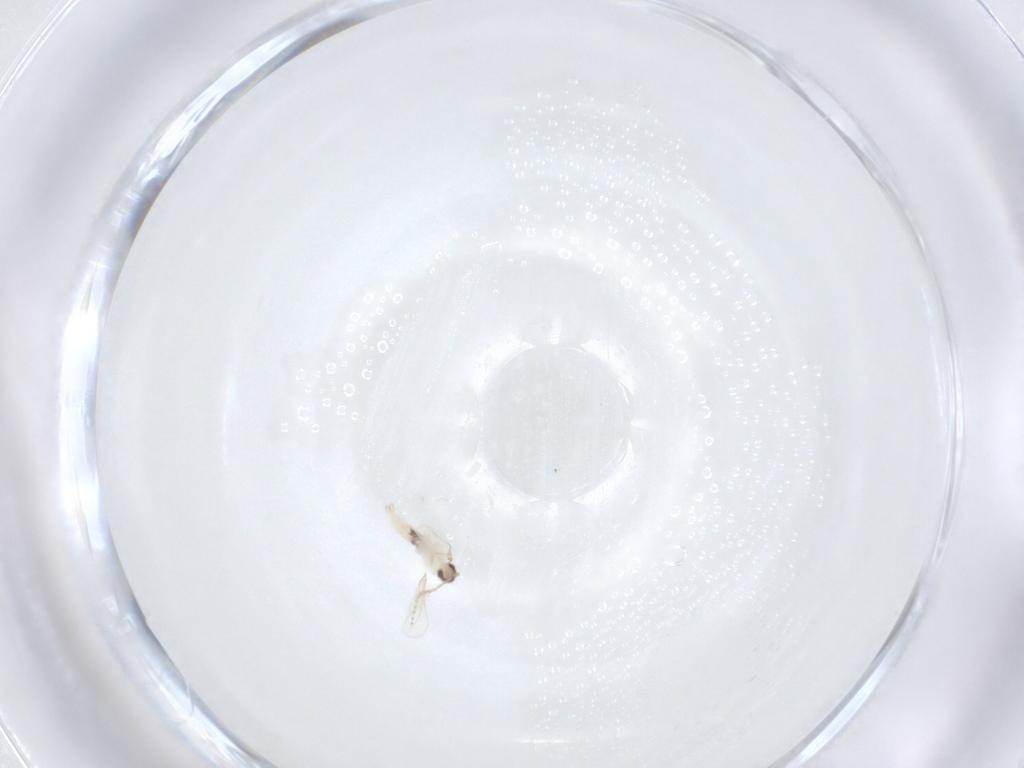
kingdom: Animalia
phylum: Arthropoda
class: Insecta
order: Diptera
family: Cecidomyiidae
